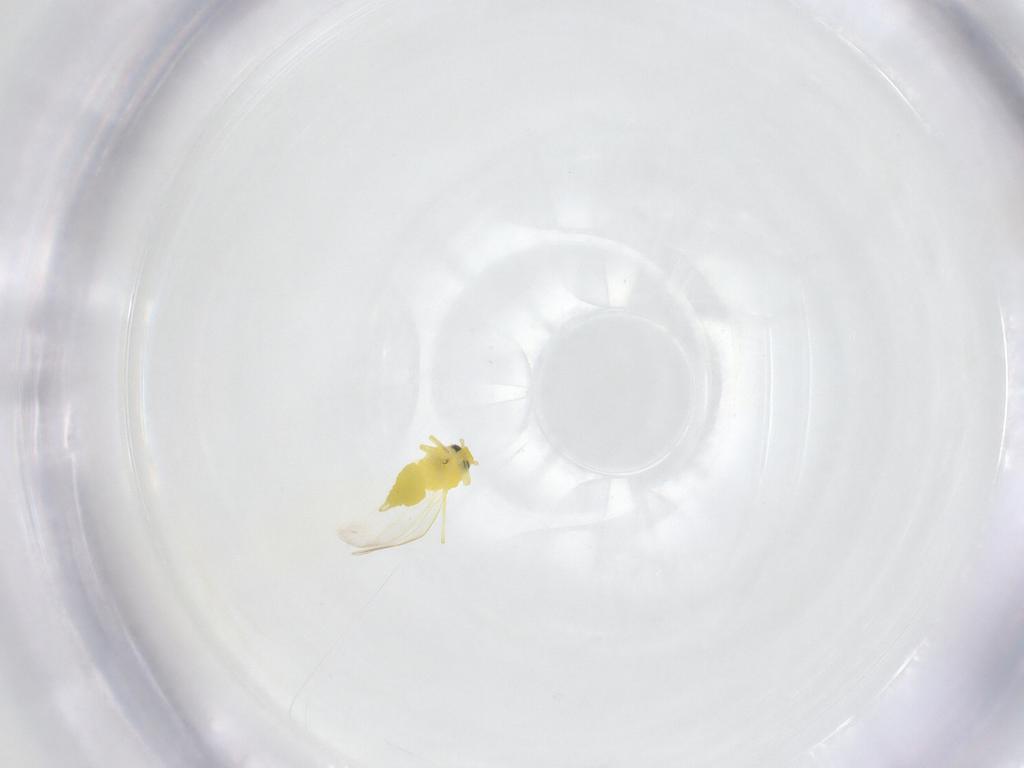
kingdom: Animalia
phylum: Arthropoda
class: Insecta
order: Hemiptera
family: Aleyrodidae
